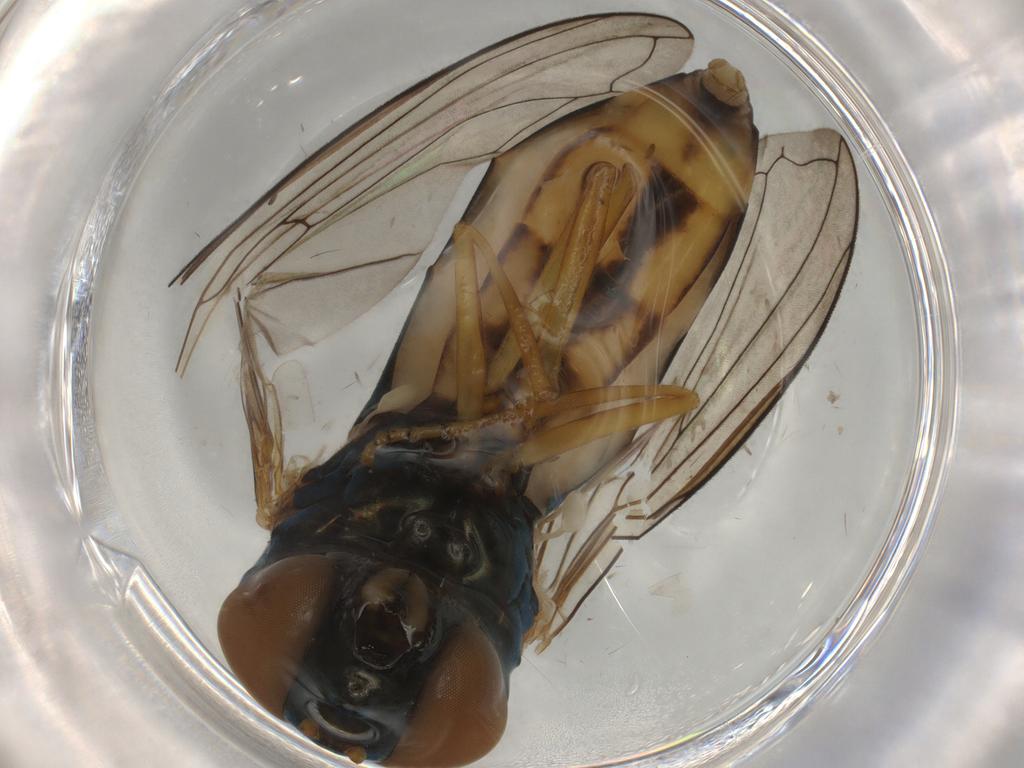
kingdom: Animalia
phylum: Arthropoda
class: Insecta
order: Diptera
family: Syrphidae
